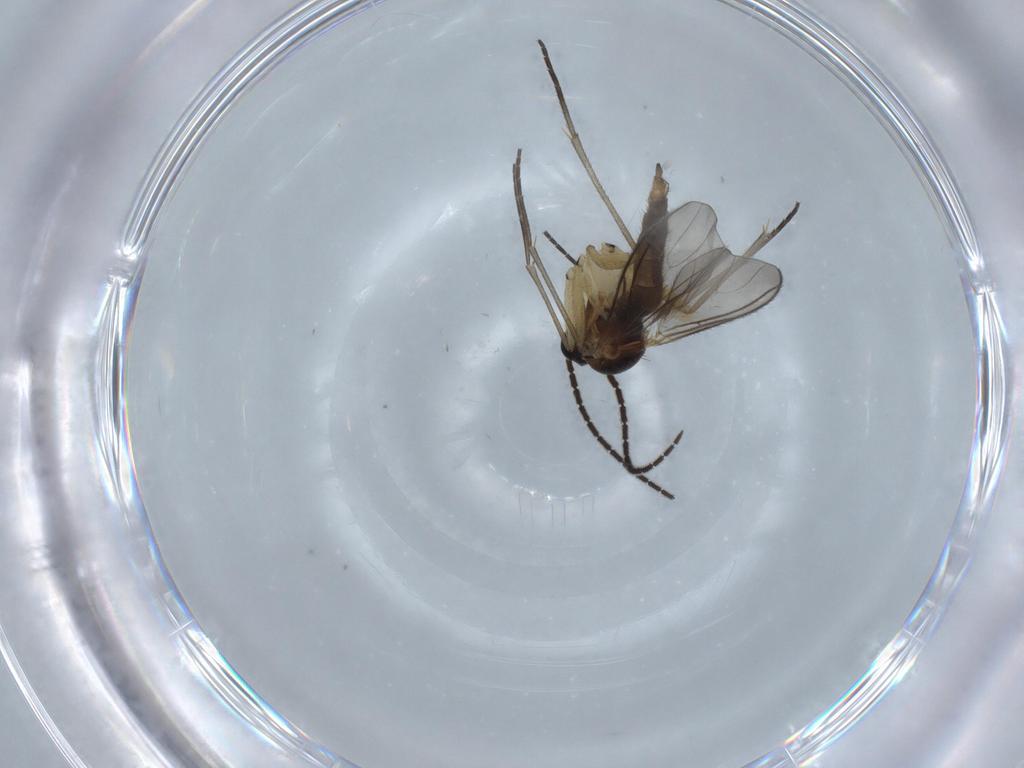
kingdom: Animalia
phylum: Arthropoda
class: Insecta
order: Diptera
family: Sciaridae
